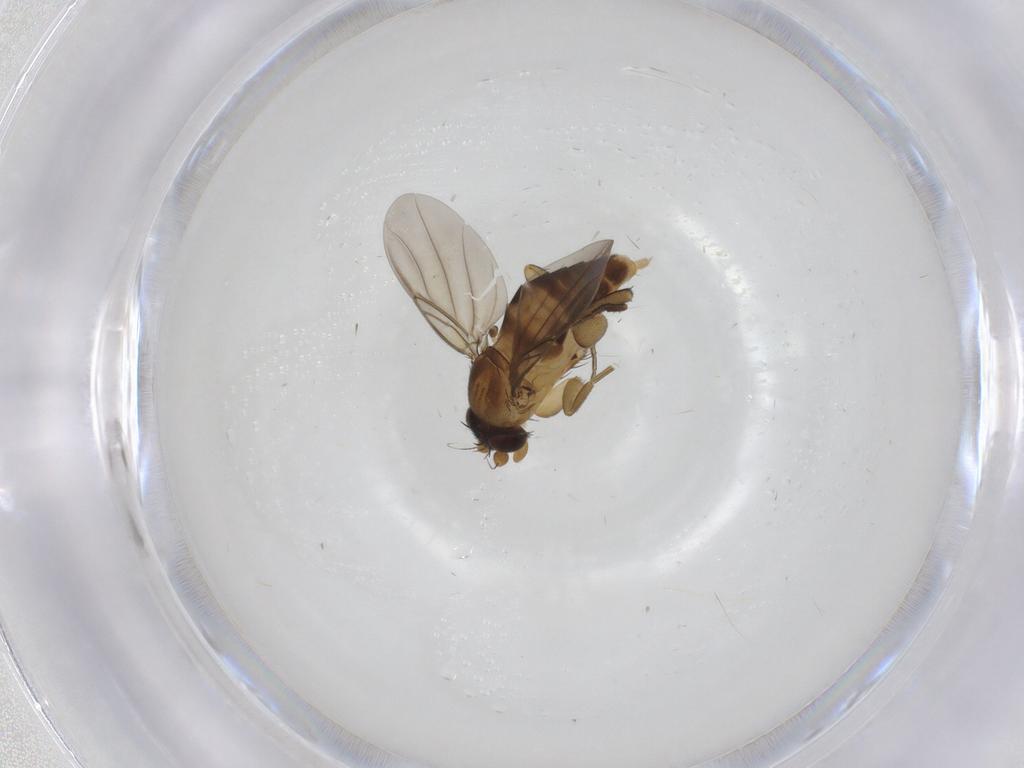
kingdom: Animalia
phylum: Arthropoda
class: Insecta
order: Diptera
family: Phoridae
